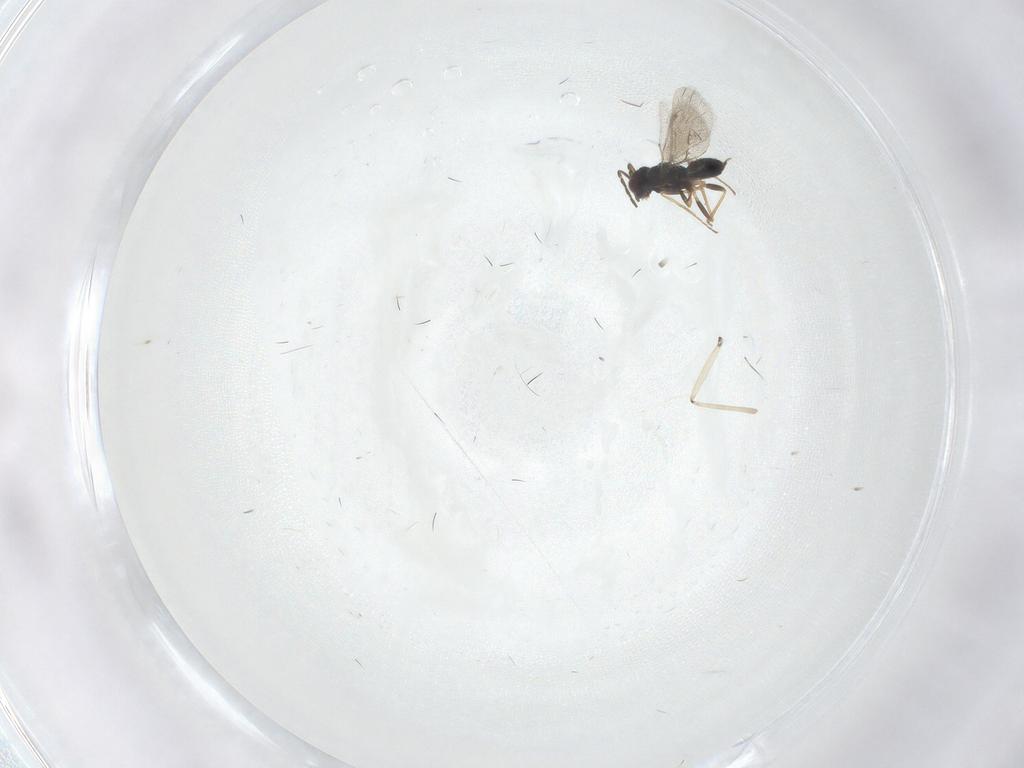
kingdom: Animalia
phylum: Arthropoda
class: Insecta
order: Hymenoptera
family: Eulophidae
